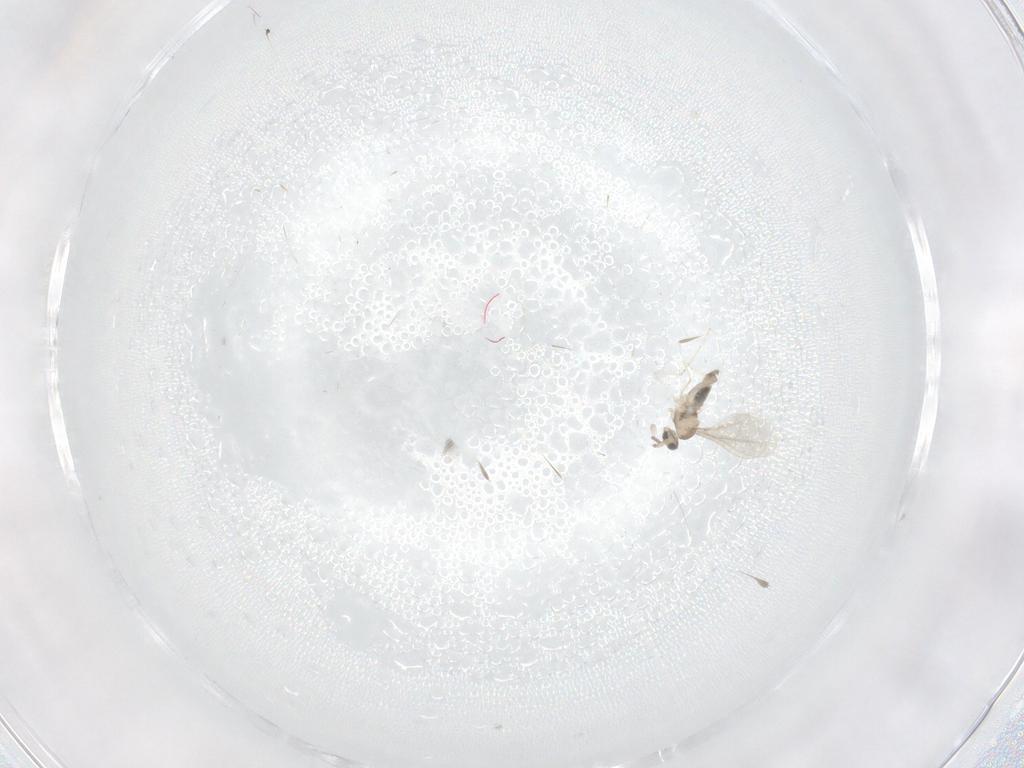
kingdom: Animalia
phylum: Arthropoda
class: Insecta
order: Diptera
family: Cecidomyiidae
